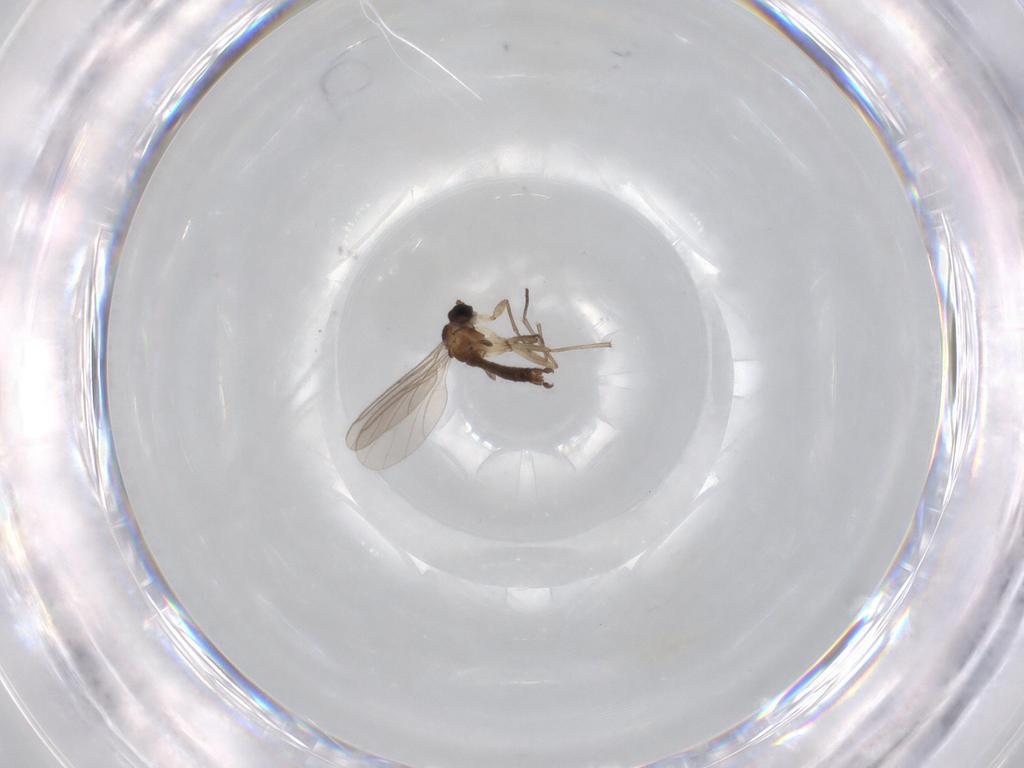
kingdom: Animalia
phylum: Arthropoda
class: Insecta
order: Diptera
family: Sciaridae
